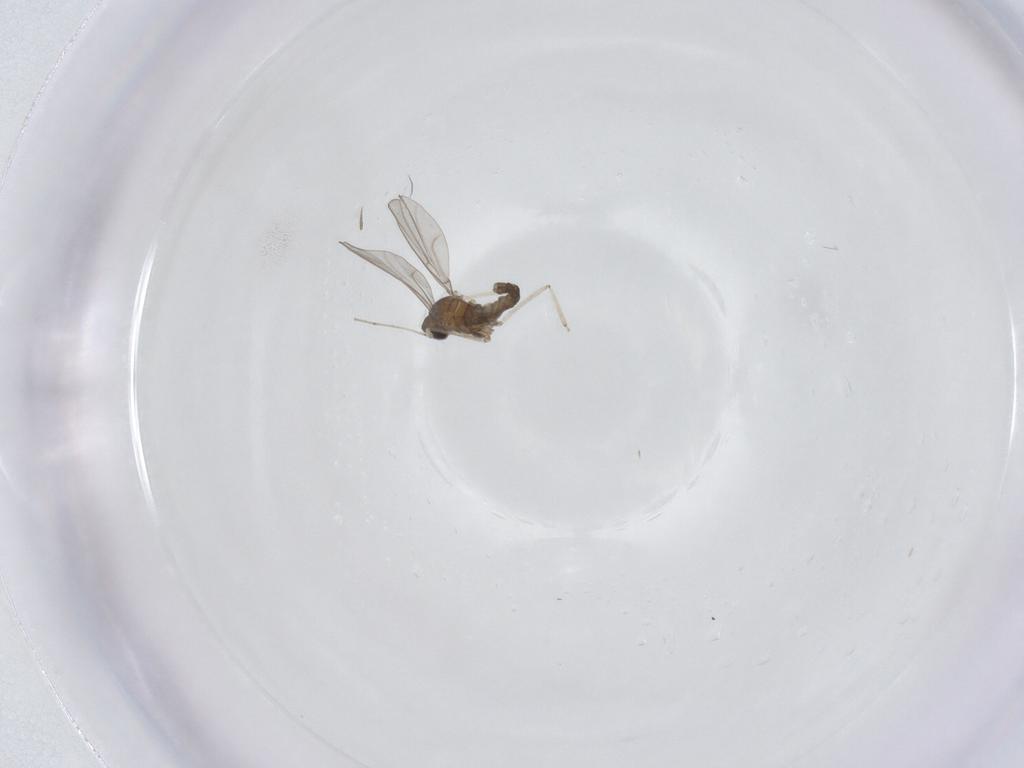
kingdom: Animalia
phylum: Arthropoda
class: Insecta
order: Diptera
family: Phoridae
